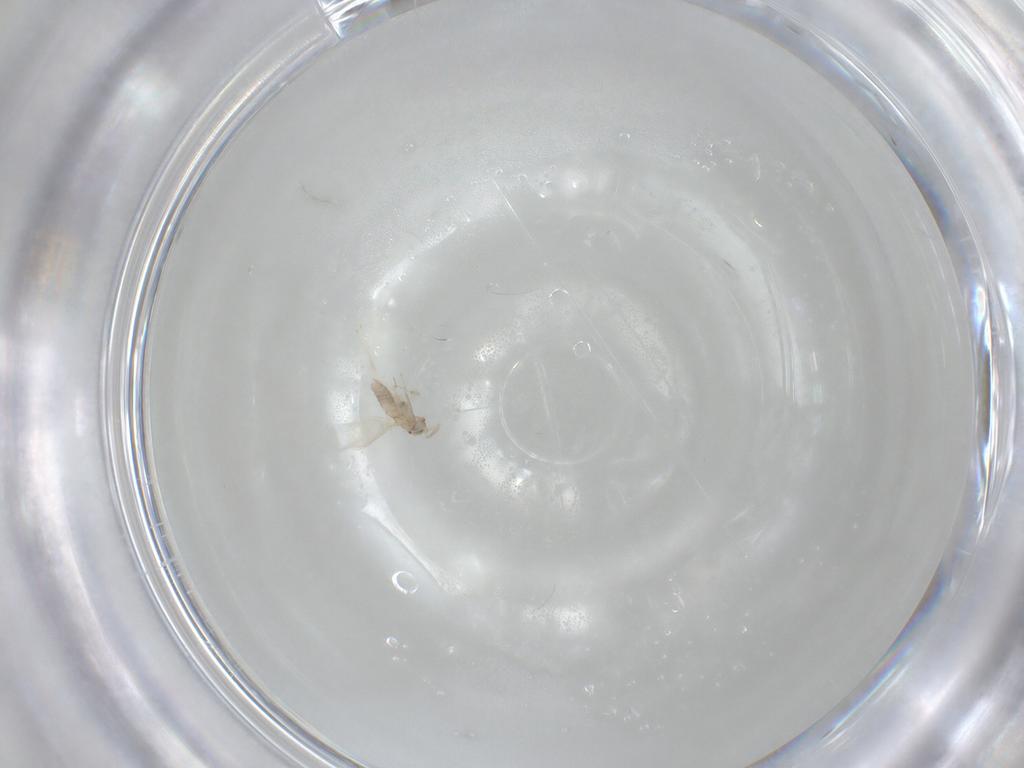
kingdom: Animalia
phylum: Arthropoda
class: Insecta
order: Hymenoptera
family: Aphelinidae
